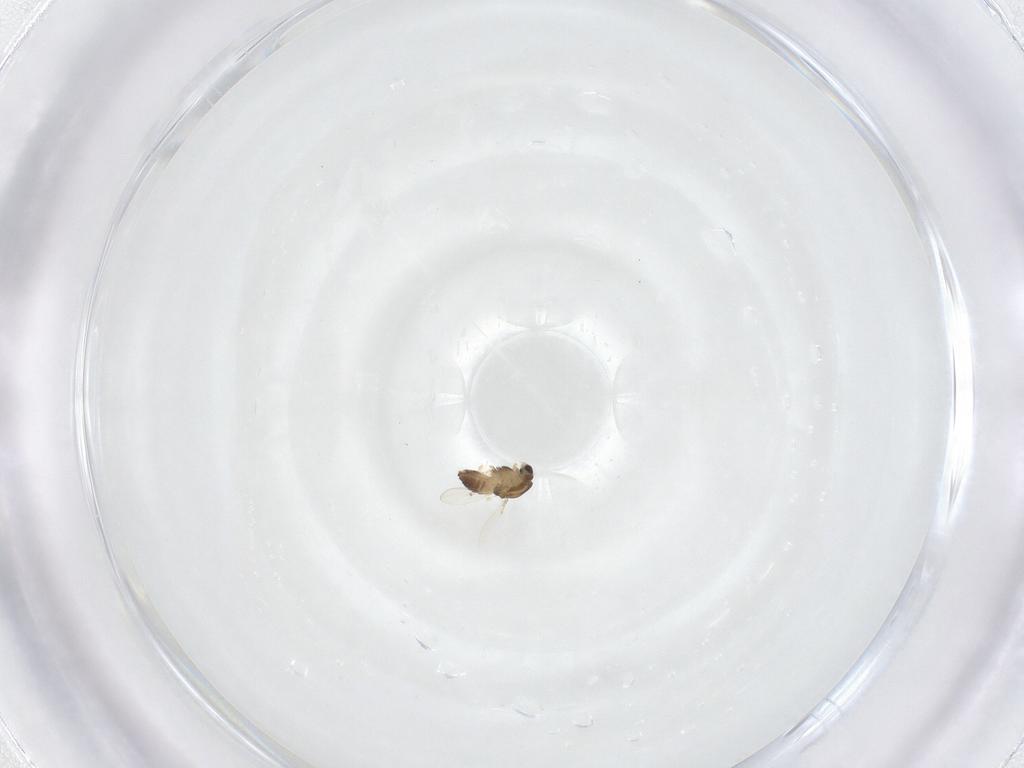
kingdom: Animalia
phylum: Arthropoda
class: Insecta
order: Diptera
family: Chironomidae
